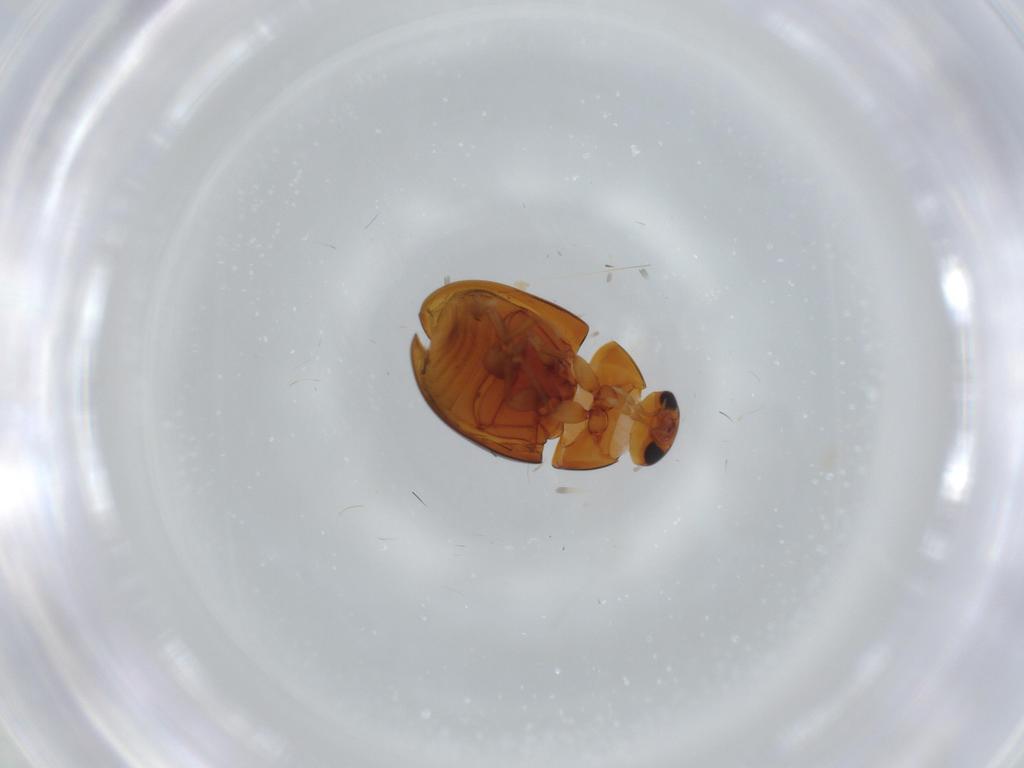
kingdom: Animalia
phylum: Arthropoda
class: Insecta
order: Coleoptera
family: Phalacridae
